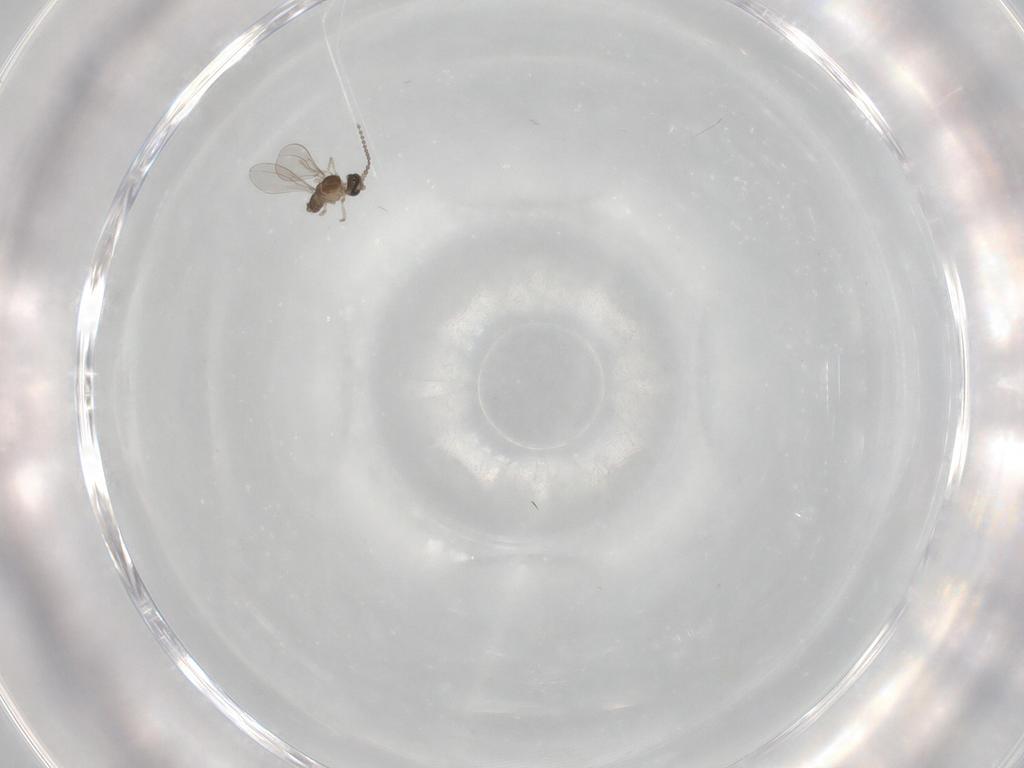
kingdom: Animalia
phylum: Arthropoda
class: Insecta
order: Diptera
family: Cecidomyiidae
